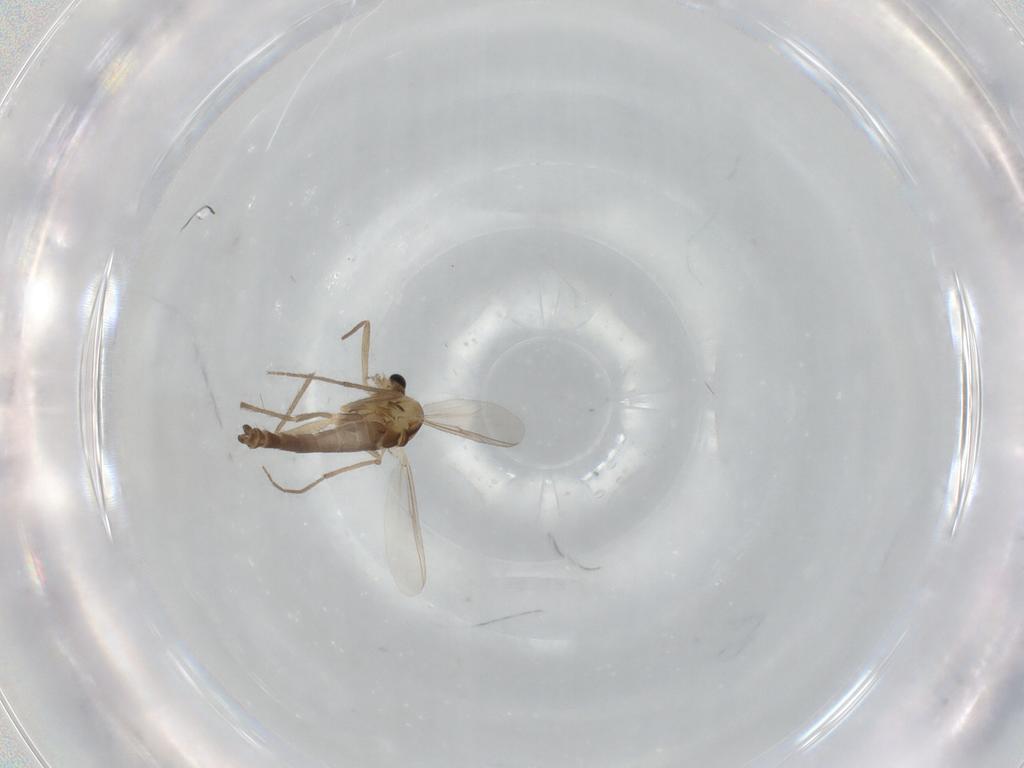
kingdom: Animalia
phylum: Arthropoda
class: Insecta
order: Diptera
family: Chironomidae
